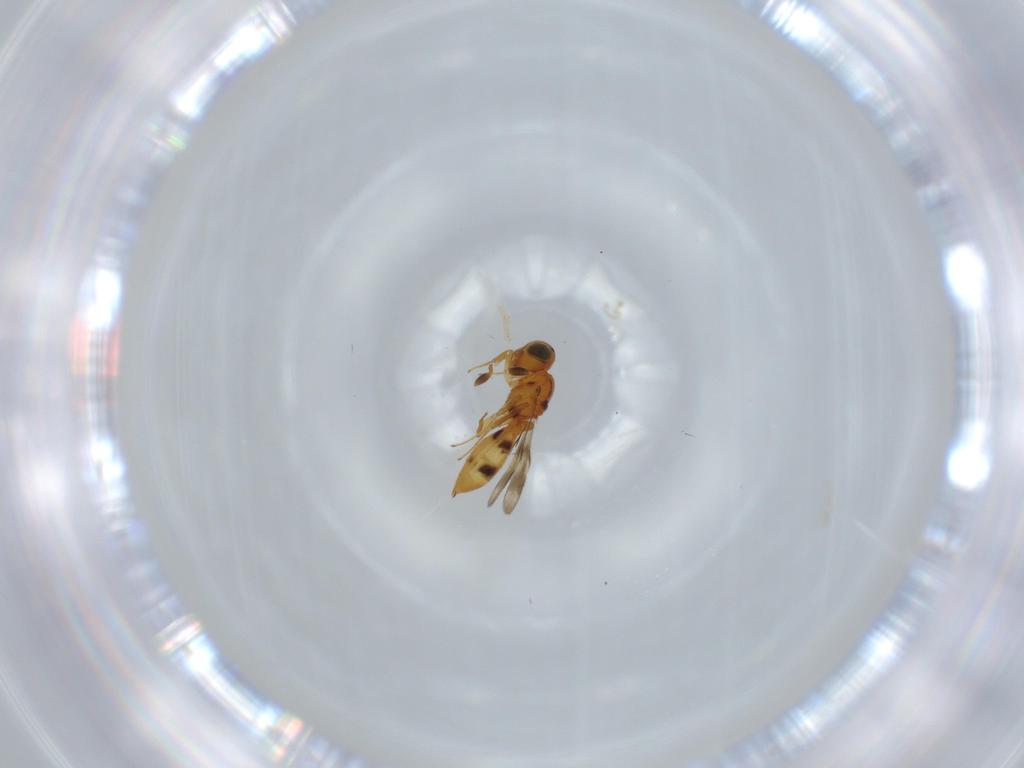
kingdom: Animalia
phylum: Arthropoda
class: Insecta
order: Hymenoptera
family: Scelionidae
